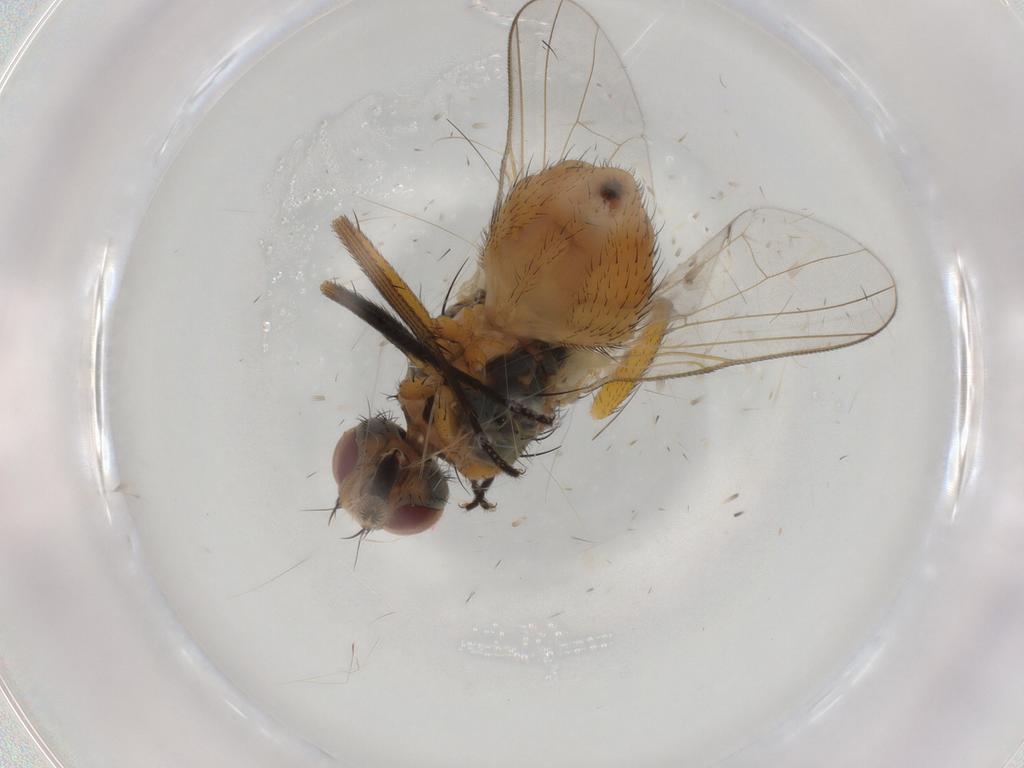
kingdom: Animalia
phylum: Arthropoda
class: Insecta
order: Diptera
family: Muscidae
